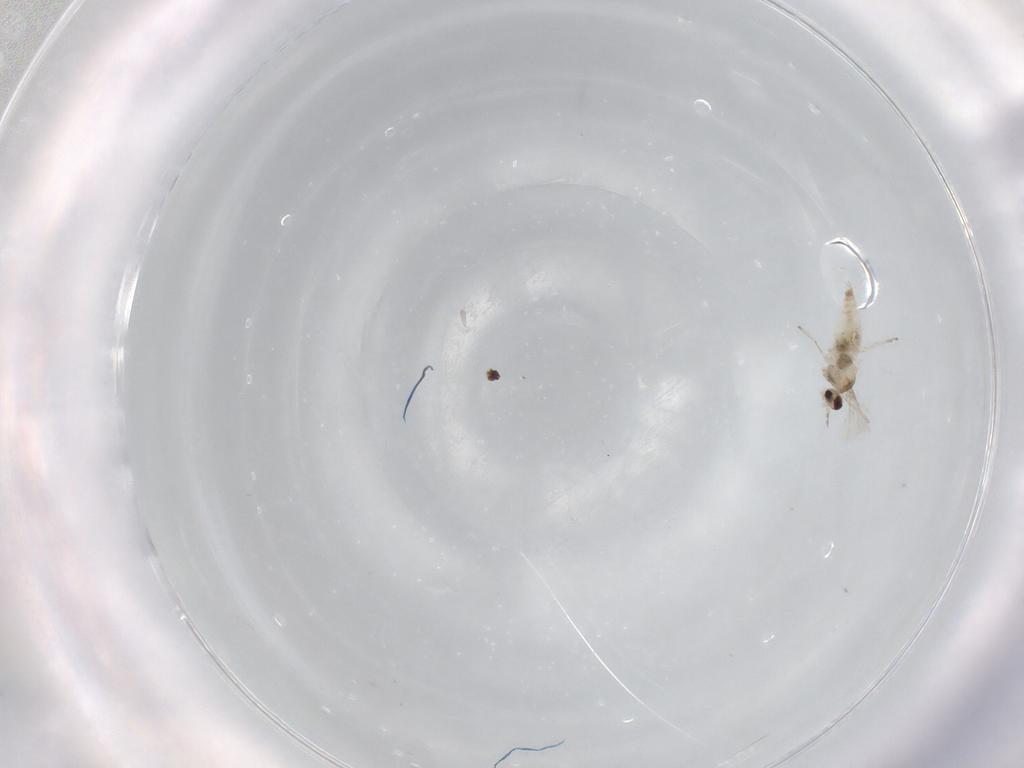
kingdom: Animalia
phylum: Arthropoda
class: Insecta
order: Diptera
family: Cecidomyiidae
